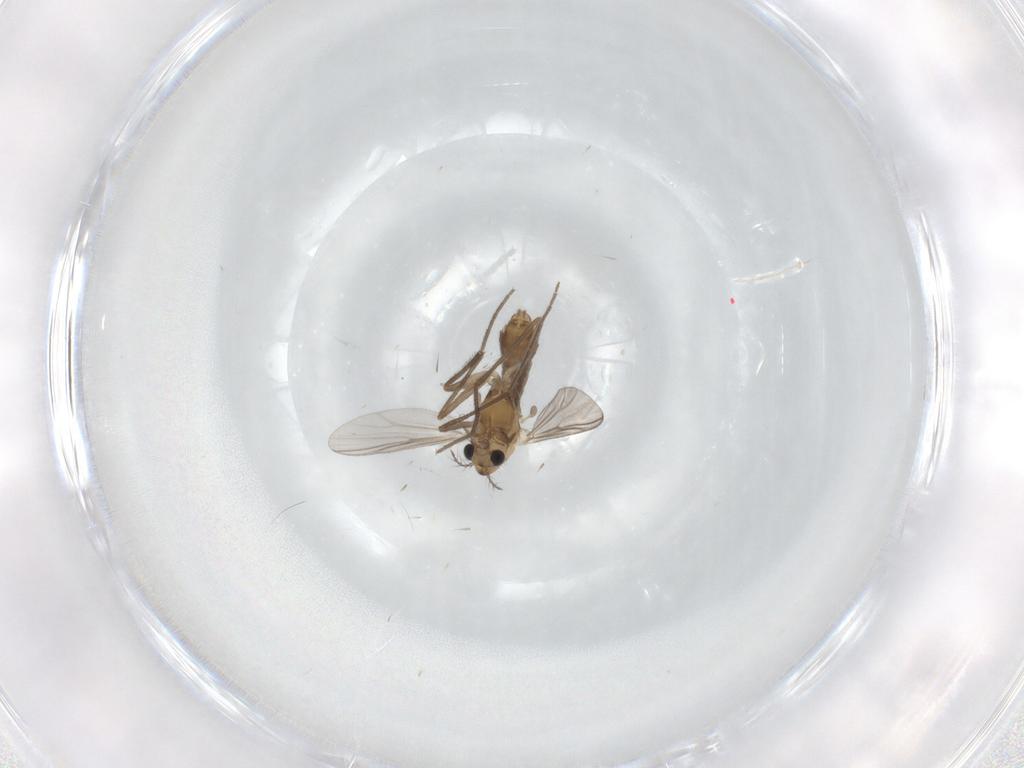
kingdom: Animalia
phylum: Arthropoda
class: Insecta
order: Diptera
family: Chironomidae
